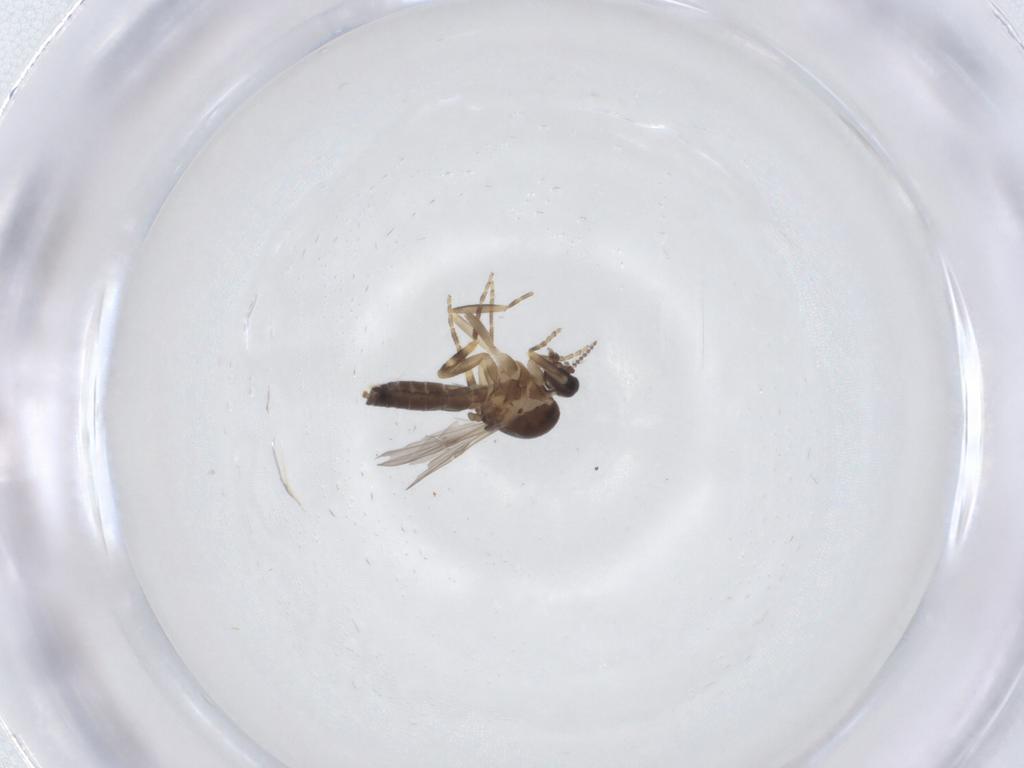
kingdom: Animalia
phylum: Arthropoda
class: Insecta
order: Diptera
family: Ceratopogonidae
